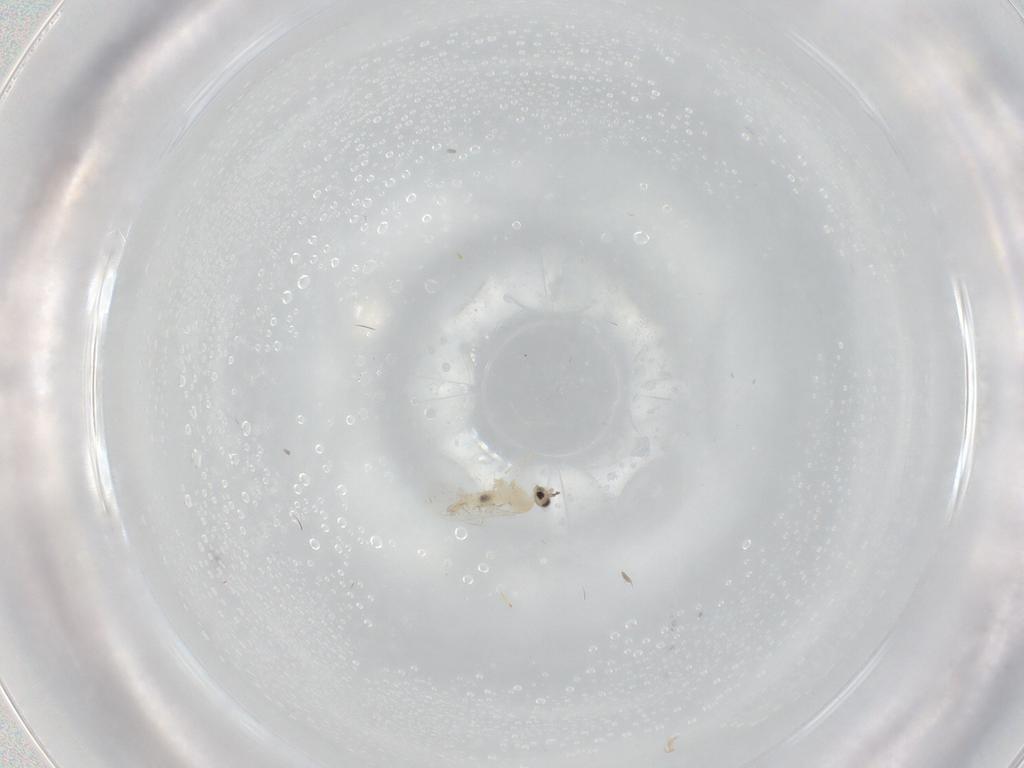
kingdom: Animalia
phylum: Arthropoda
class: Insecta
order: Diptera
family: Cecidomyiidae
